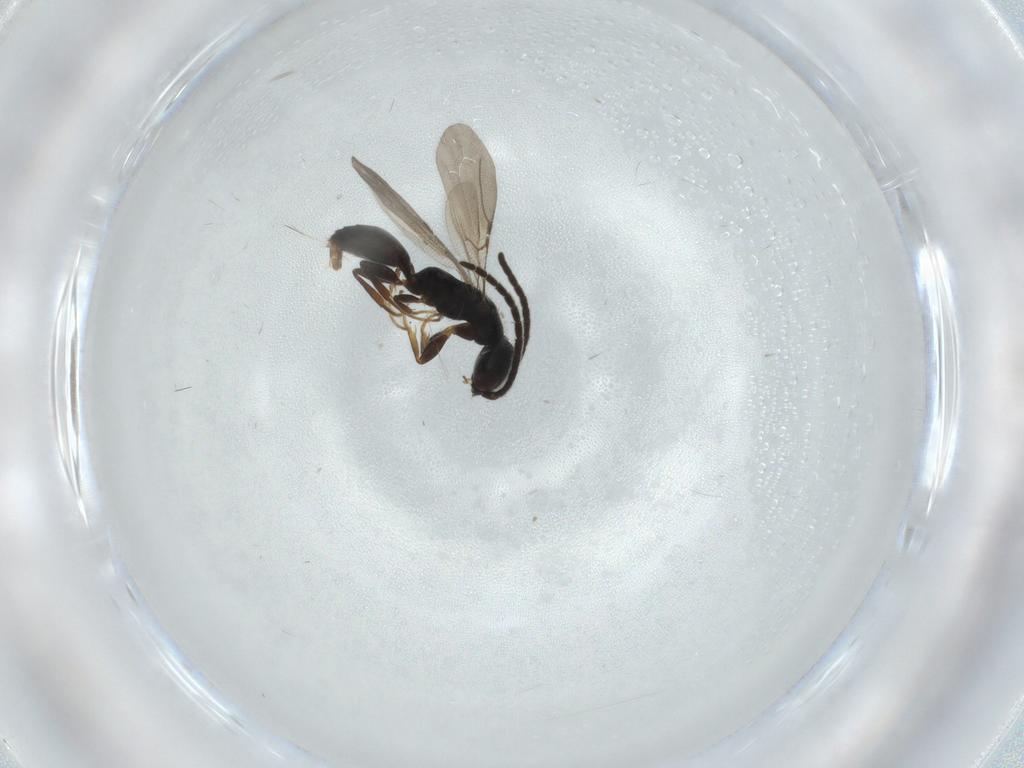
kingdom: Animalia
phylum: Arthropoda
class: Insecta
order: Hymenoptera
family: Bethylidae
